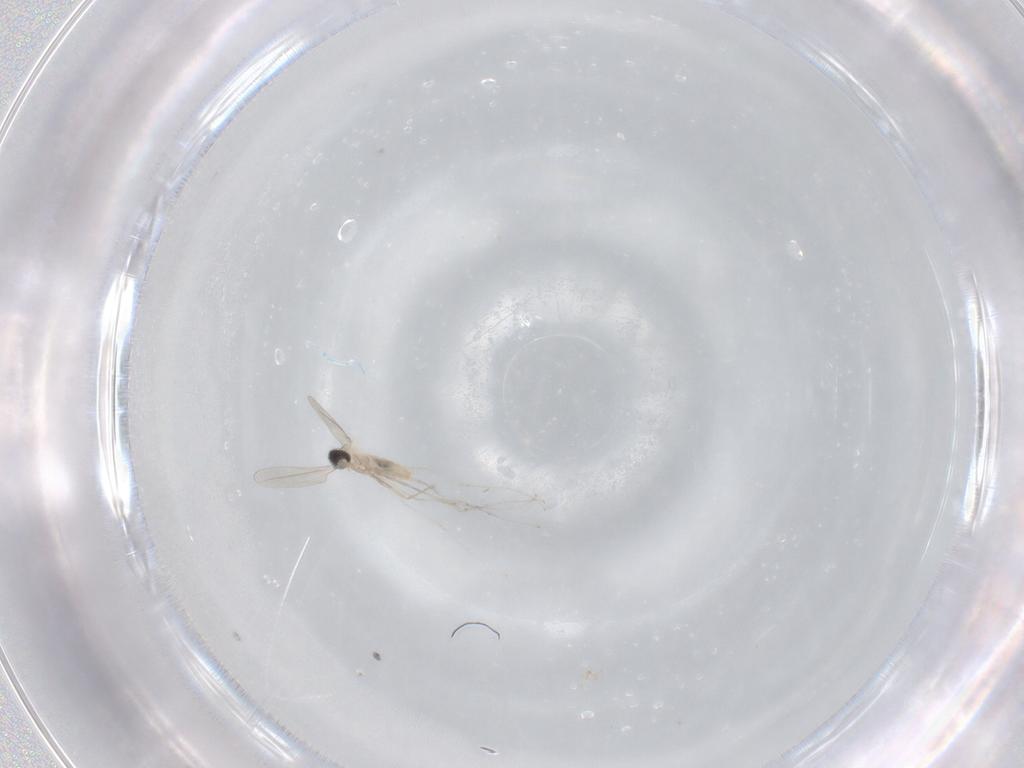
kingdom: Animalia
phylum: Arthropoda
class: Insecta
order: Diptera
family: Cecidomyiidae
